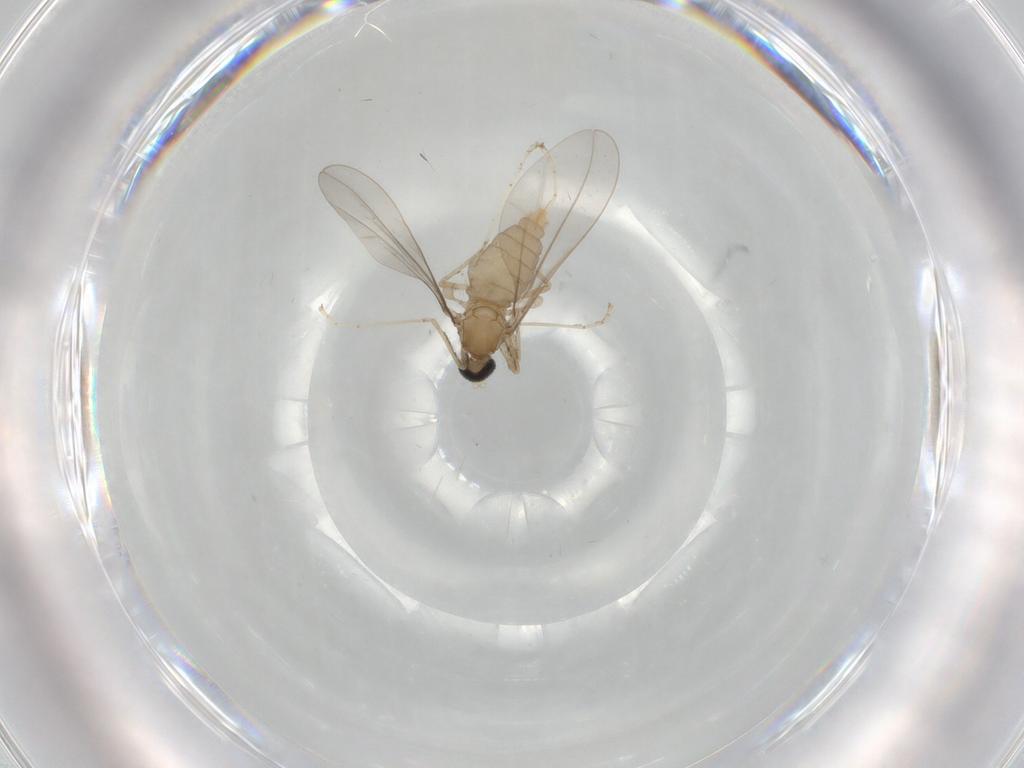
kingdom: Animalia
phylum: Arthropoda
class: Insecta
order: Diptera
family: Cecidomyiidae
